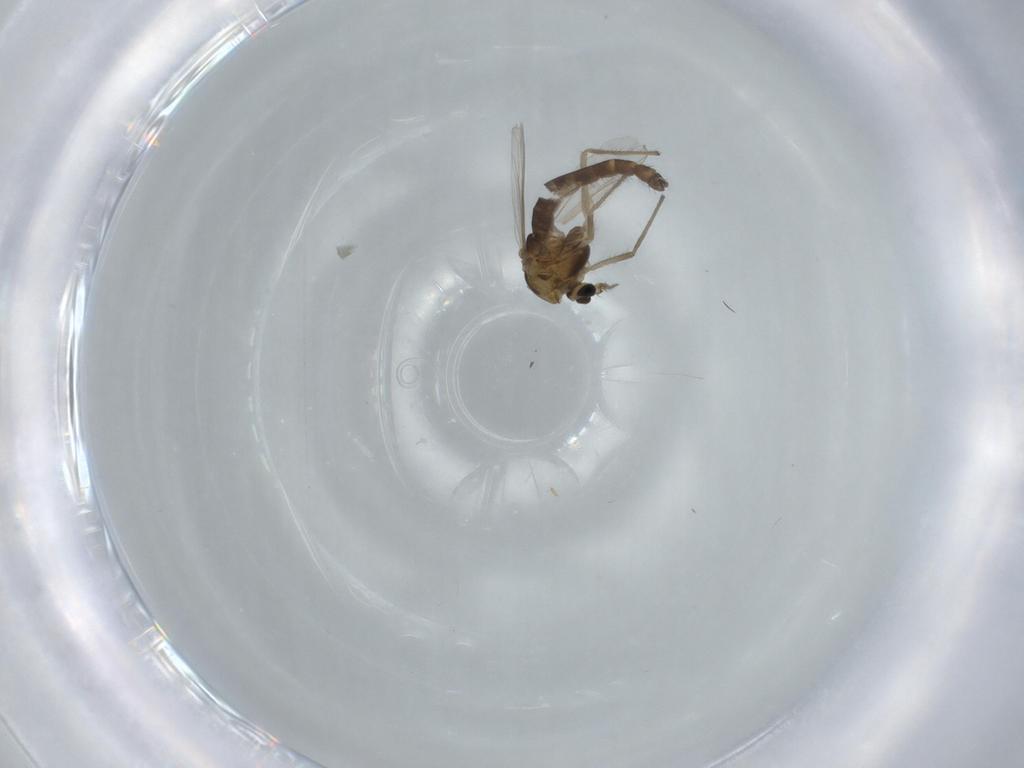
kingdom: Animalia
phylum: Arthropoda
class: Insecta
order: Diptera
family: Chironomidae
